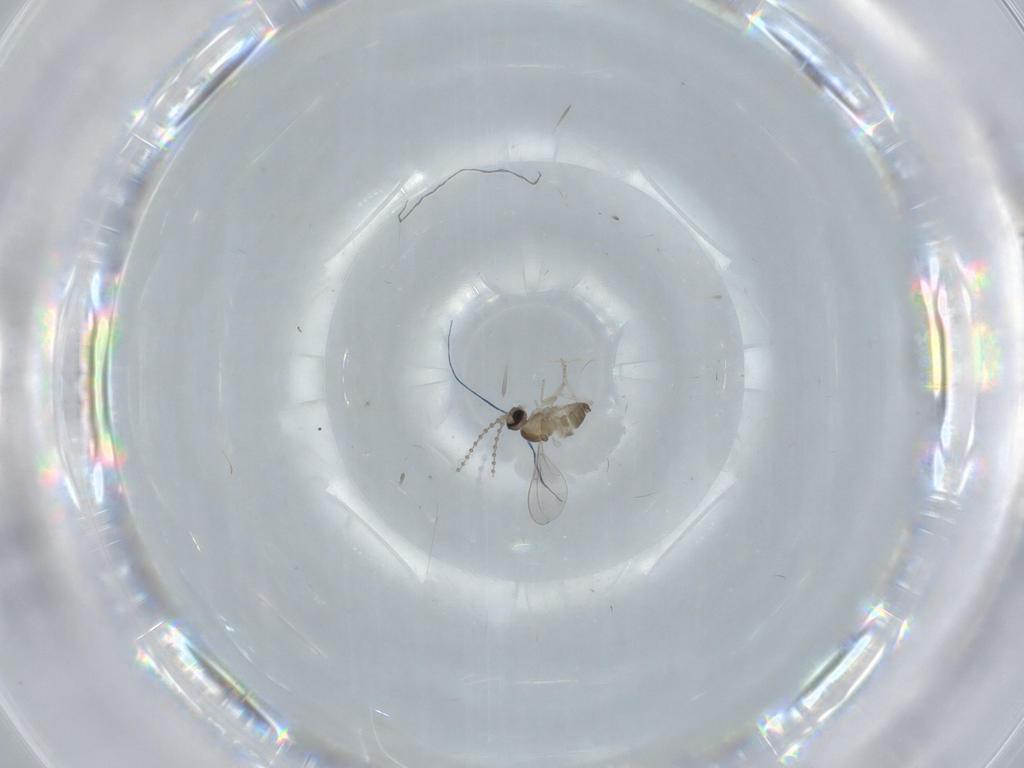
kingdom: Animalia
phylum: Arthropoda
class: Insecta
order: Diptera
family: Ceratopogonidae
